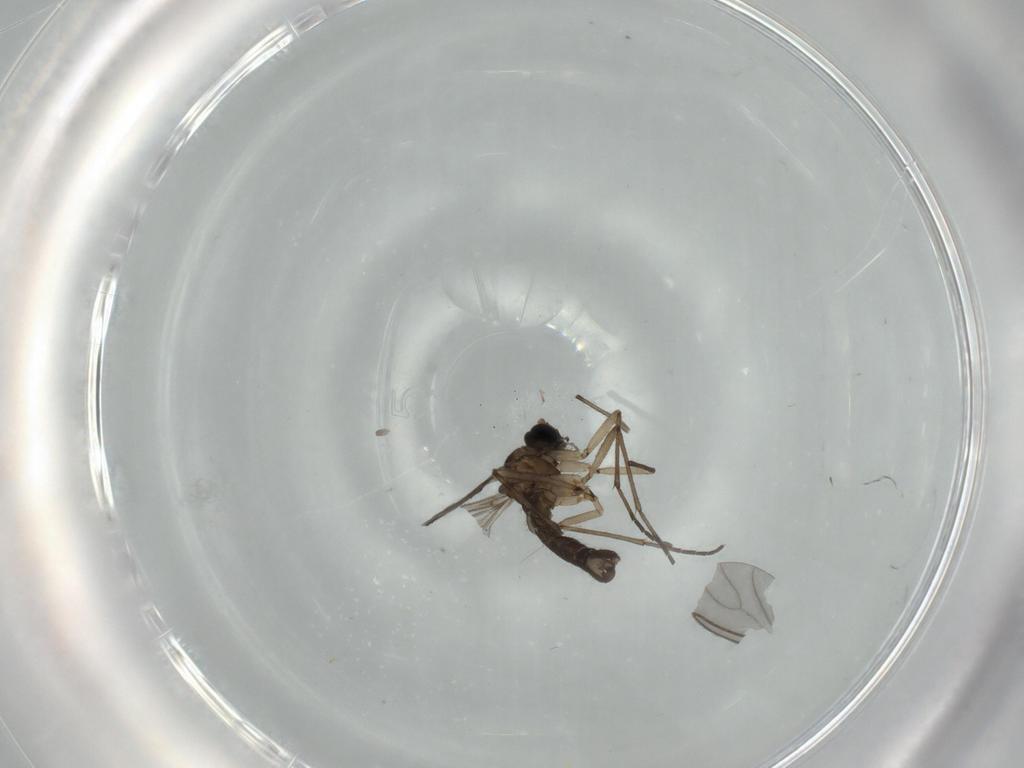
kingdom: Animalia
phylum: Arthropoda
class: Insecta
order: Diptera
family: Sciaridae
